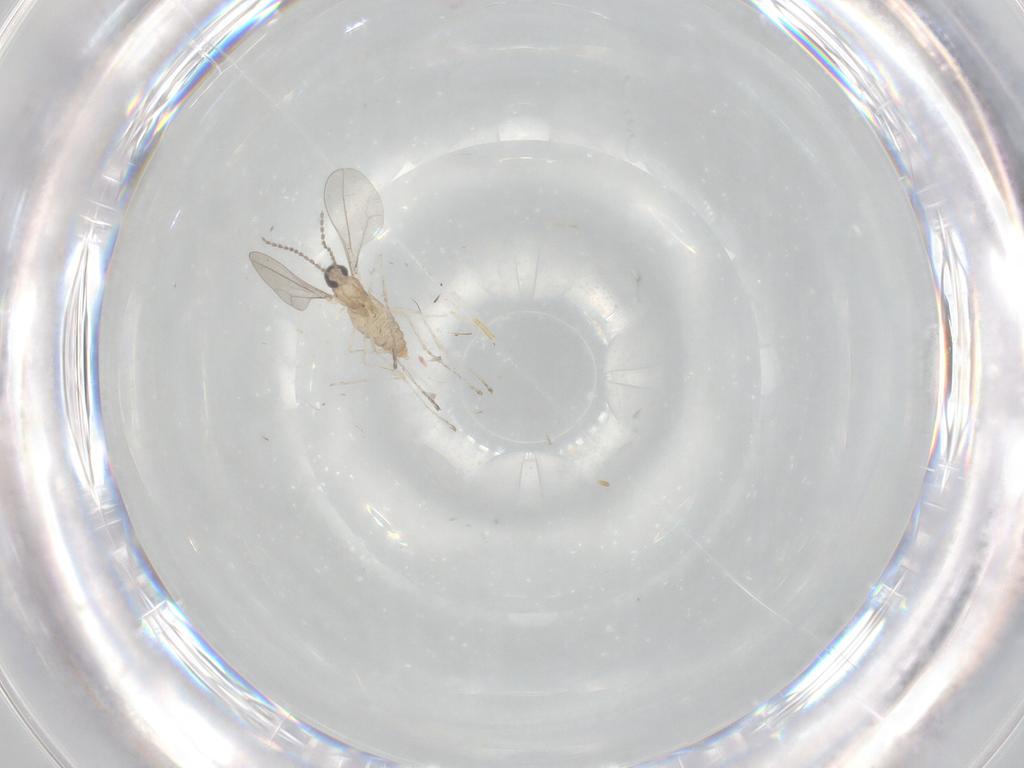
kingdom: Animalia
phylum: Arthropoda
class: Insecta
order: Diptera
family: Cecidomyiidae
